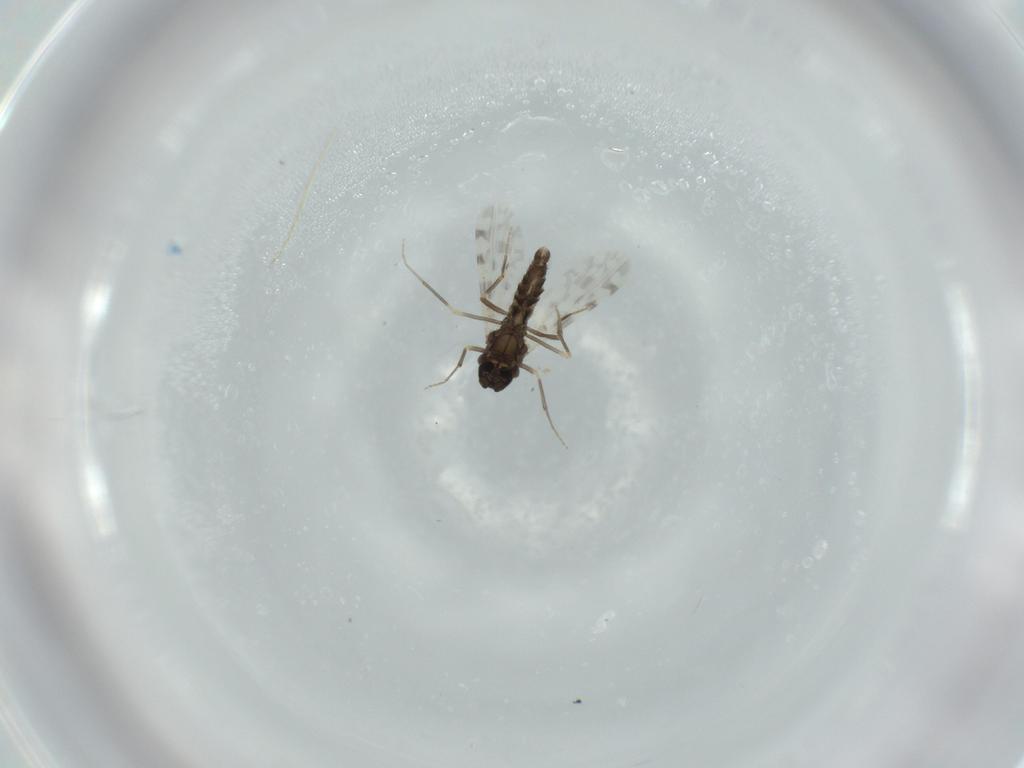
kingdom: Animalia
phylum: Arthropoda
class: Insecta
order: Diptera
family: Ceratopogonidae
